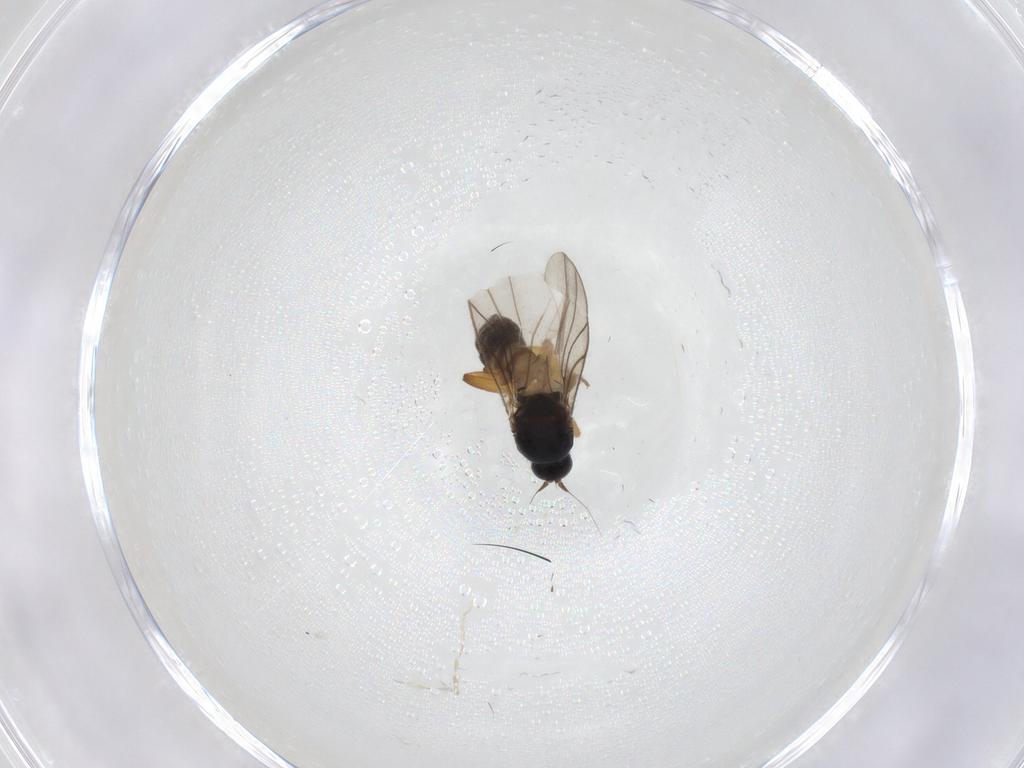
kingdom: Animalia
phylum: Arthropoda
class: Insecta
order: Diptera
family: Hybotidae
